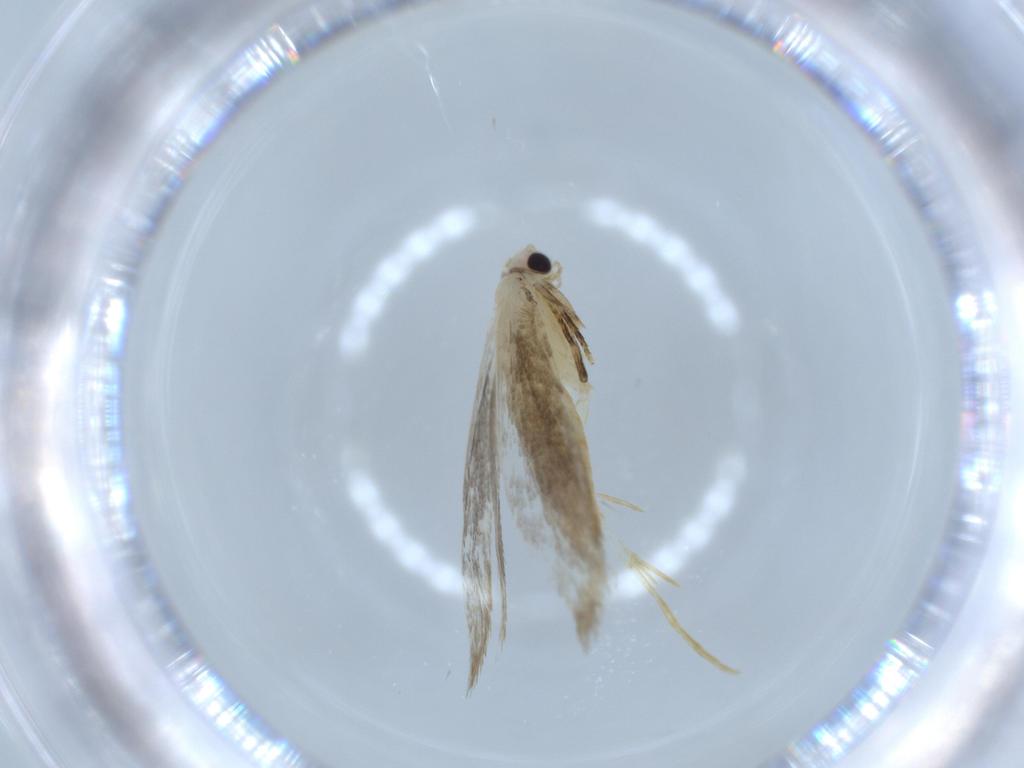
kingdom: Animalia
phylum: Arthropoda
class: Insecta
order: Lepidoptera
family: Tineidae
